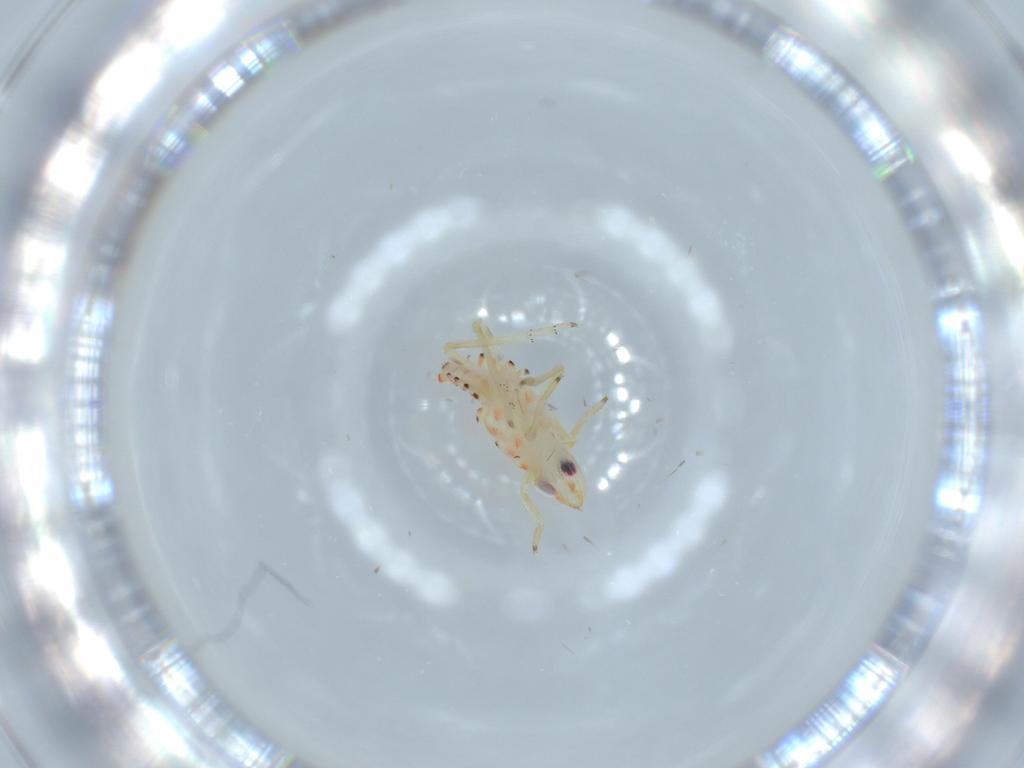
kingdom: Animalia
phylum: Arthropoda
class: Insecta
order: Hemiptera
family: Tropiduchidae
